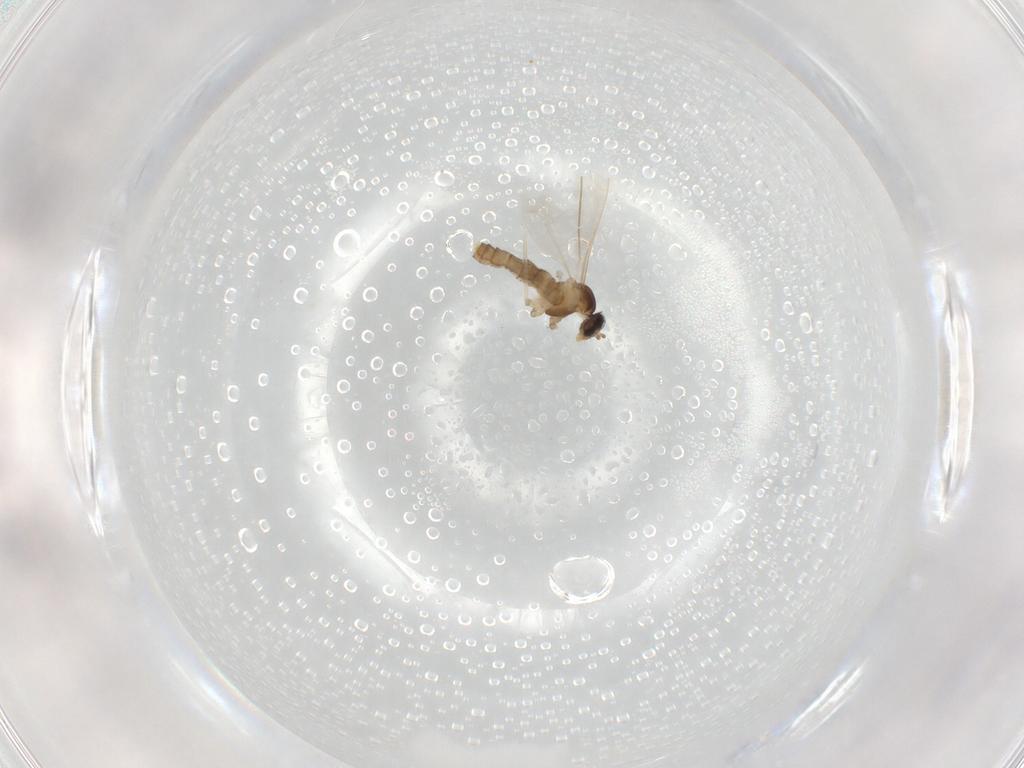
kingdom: Animalia
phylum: Arthropoda
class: Insecta
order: Diptera
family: Cecidomyiidae
